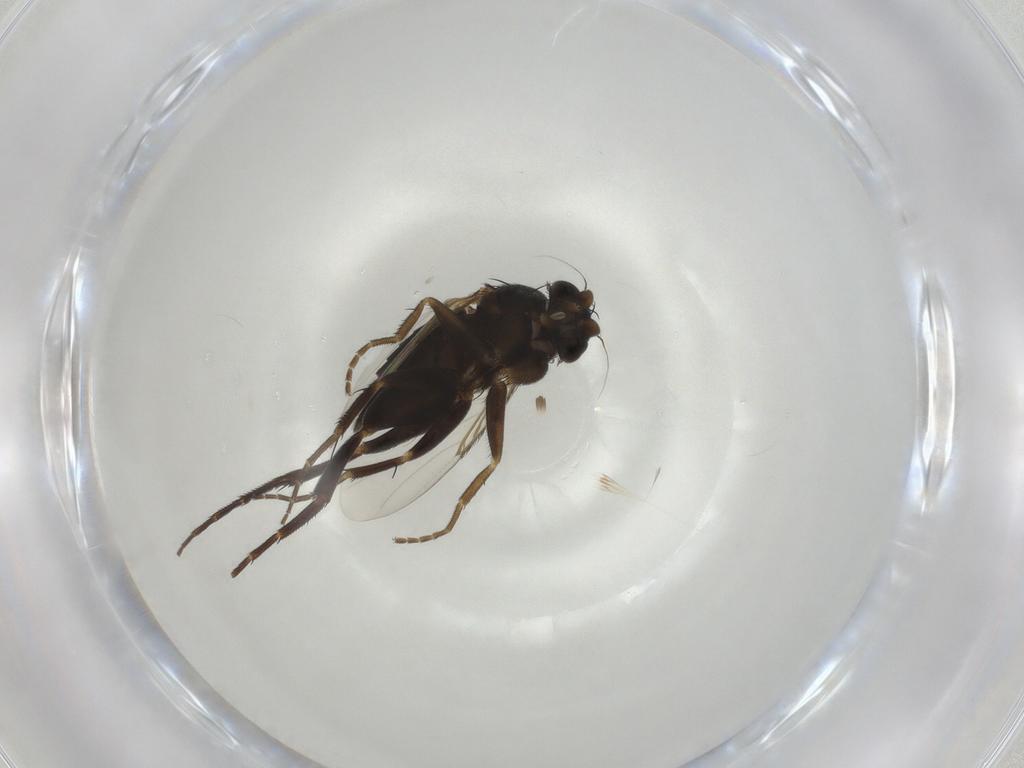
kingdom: Animalia
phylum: Arthropoda
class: Insecta
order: Diptera
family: Phoridae
